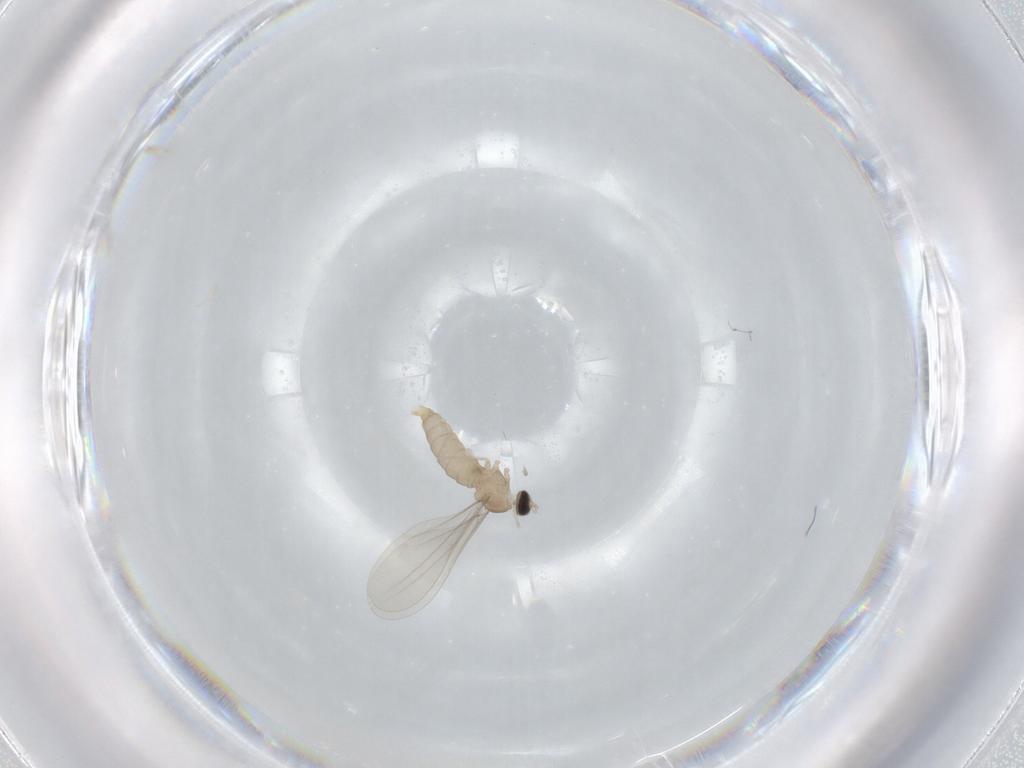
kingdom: Animalia
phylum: Arthropoda
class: Insecta
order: Diptera
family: Cecidomyiidae
